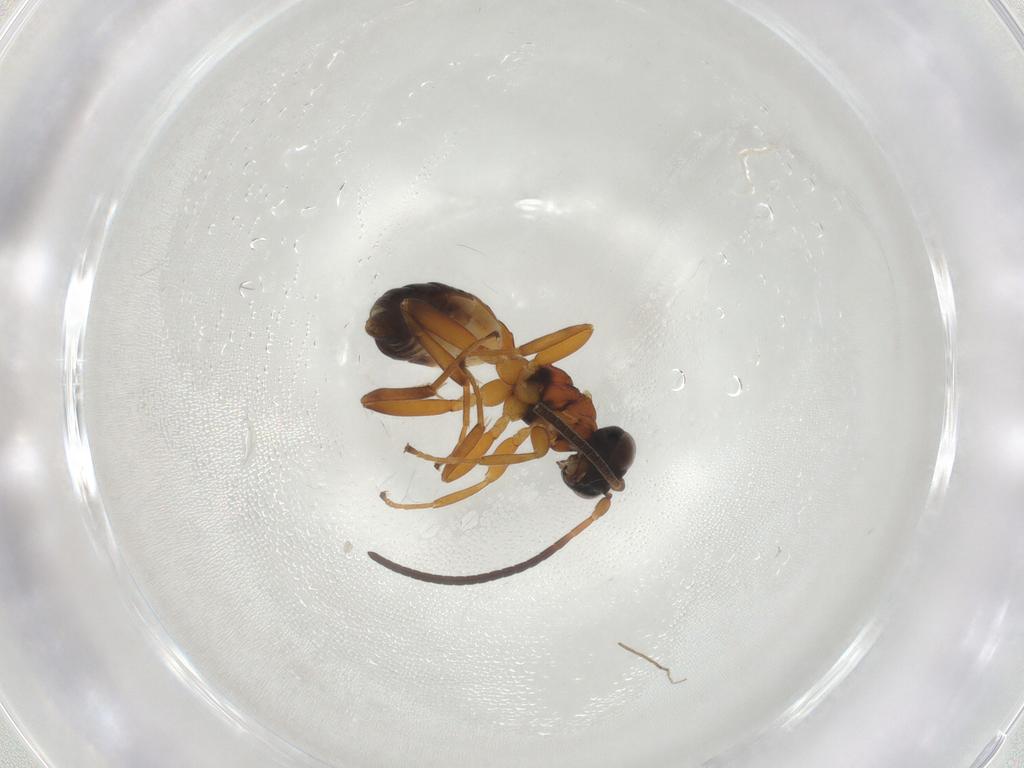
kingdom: Animalia
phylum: Arthropoda
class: Insecta
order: Hymenoptera
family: Braconidae
